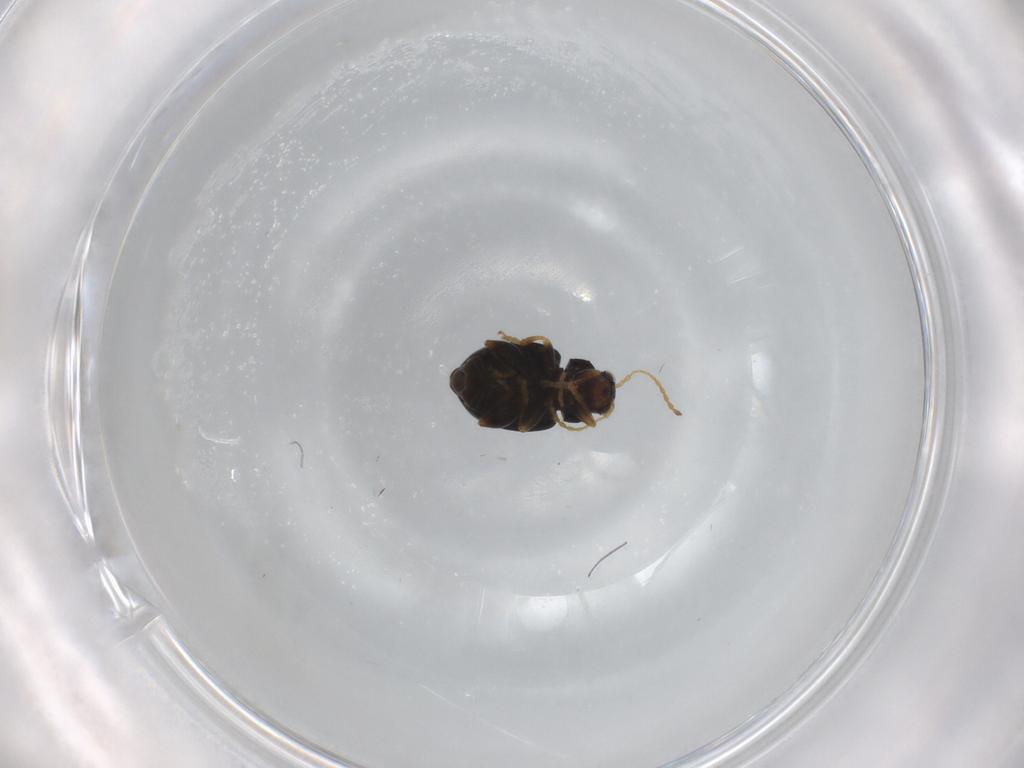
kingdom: Animalia
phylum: Arthropoda
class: Insecta
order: Coleoptera
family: Chrysomelidae
